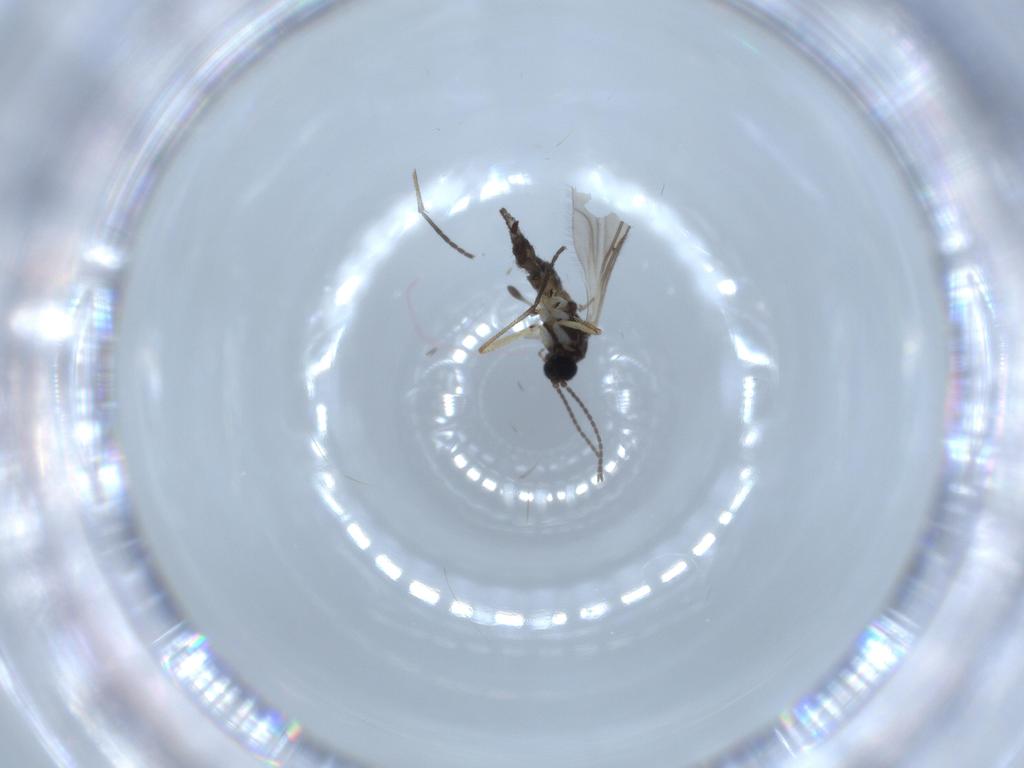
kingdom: Animalia
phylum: Arthropoda
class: Insecta
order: Diptera
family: Sciaridae
